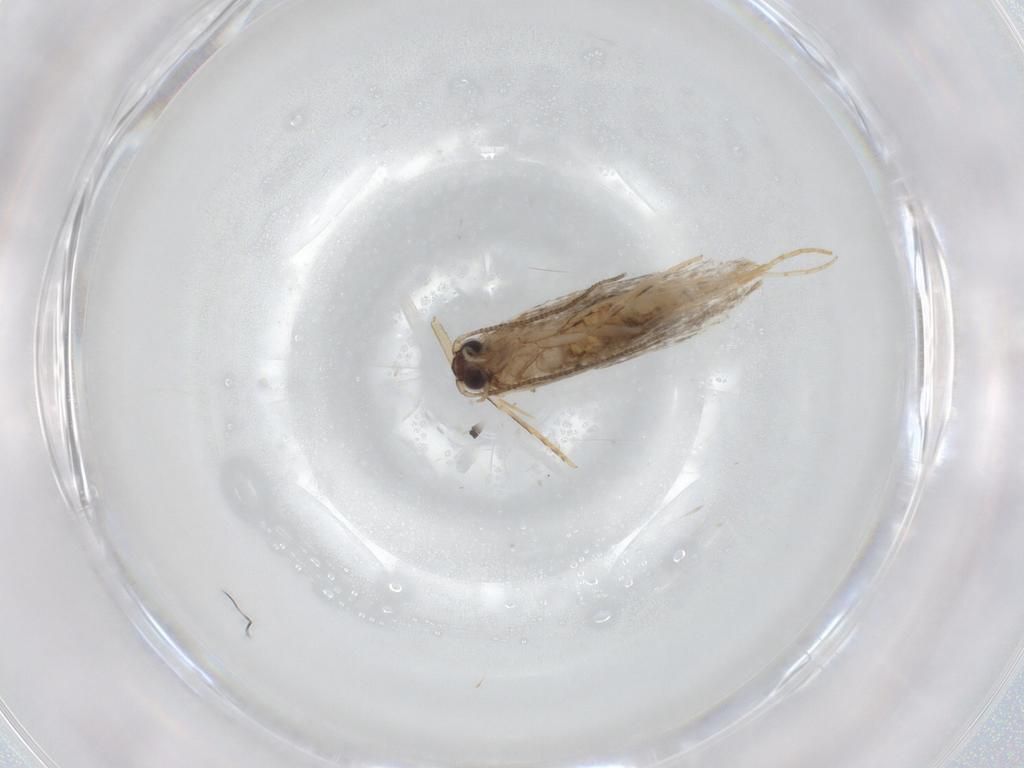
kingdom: Animalia
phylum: Arthropoda
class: Insecta
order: Lepidoptera
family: Tineidae
